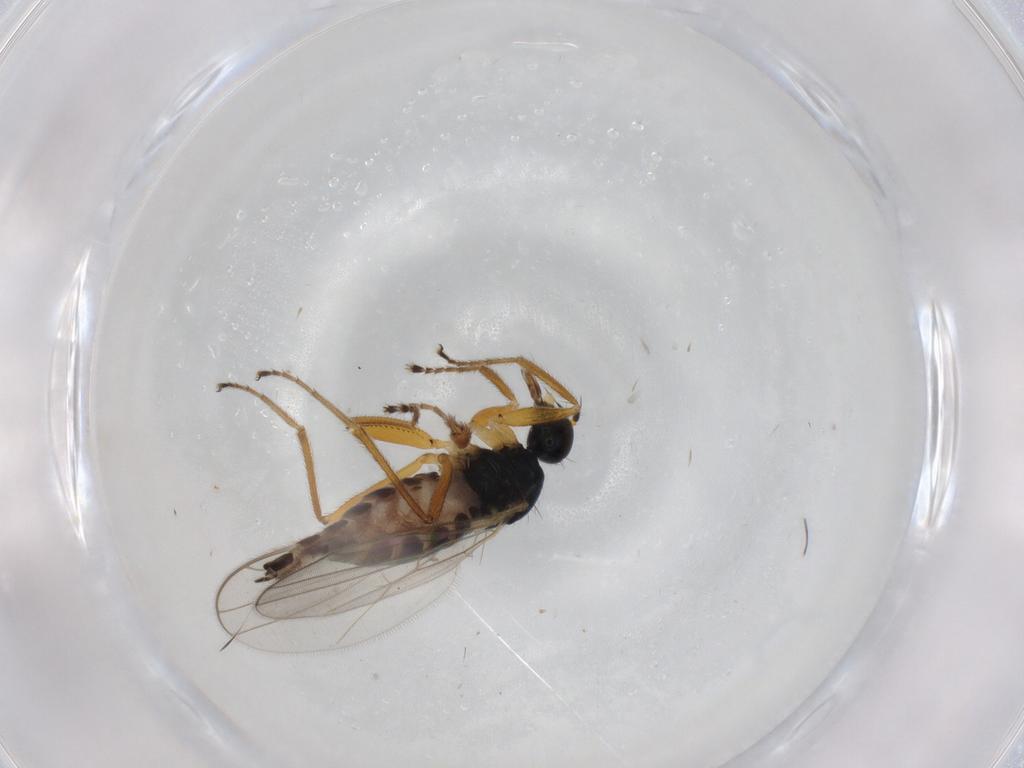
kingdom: Animalia
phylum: Arthropoda
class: Insecta
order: Diptera
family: Hybotidae
